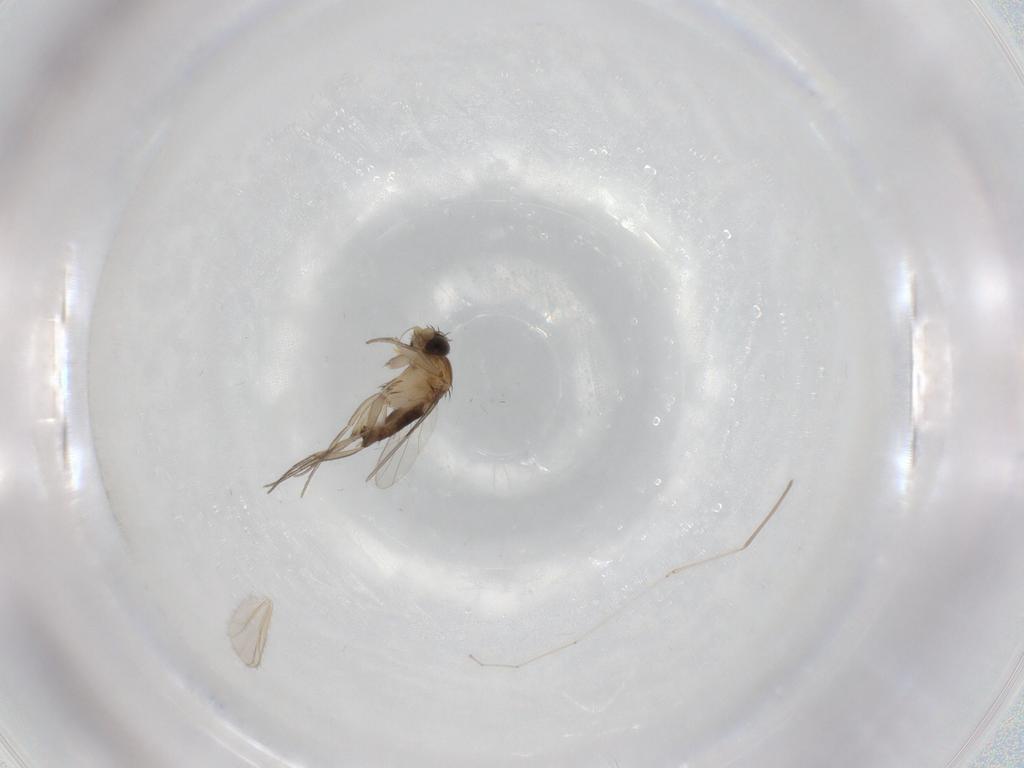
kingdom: Animalia
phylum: Arthropoda
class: Insecta
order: Diptera
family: Phoridae
